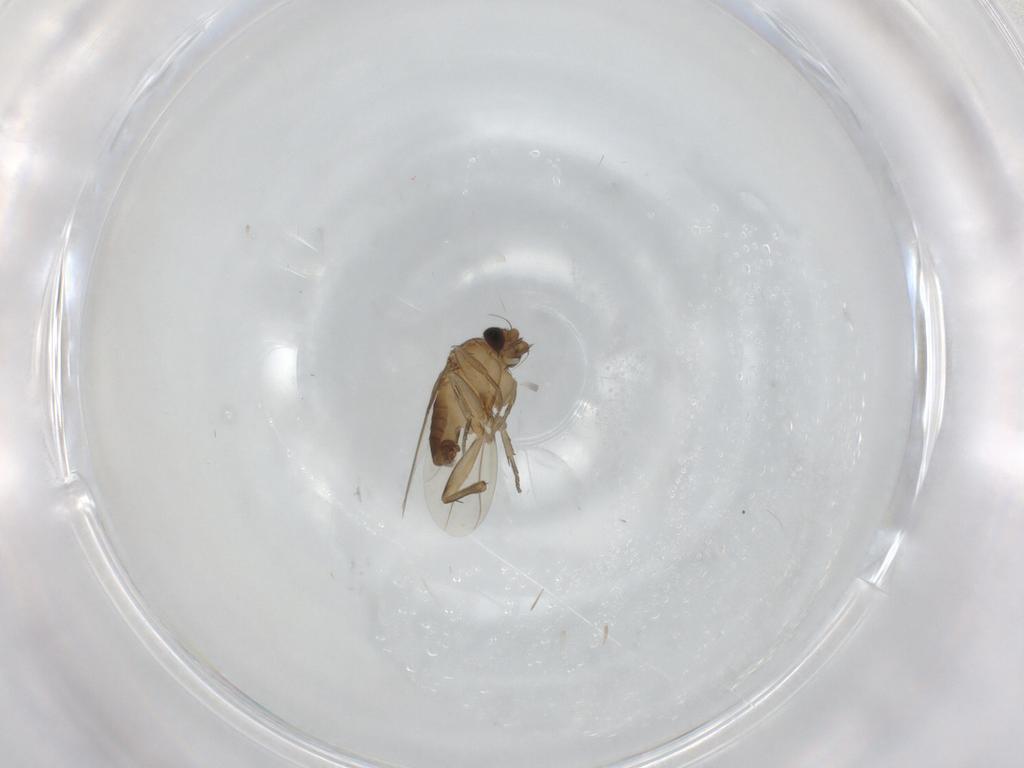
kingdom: Animalia
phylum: Arthropoda
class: Insecta
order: Diptera
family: Phoridae
